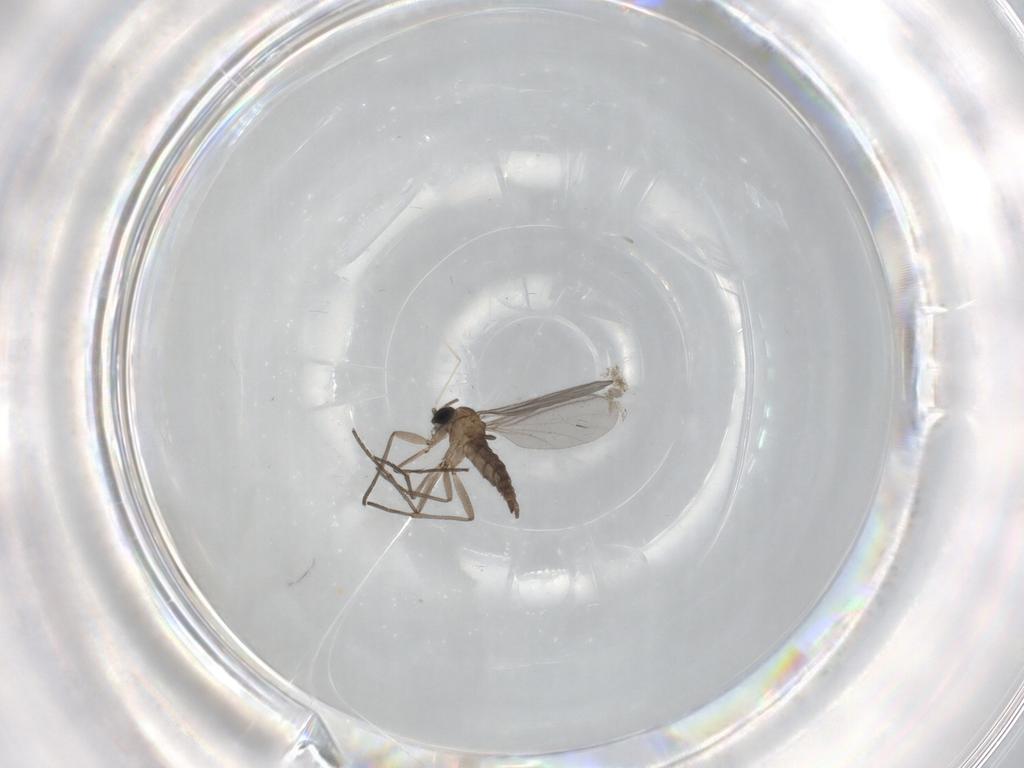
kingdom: Animalia
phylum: Arthropoda
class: Insecta
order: Diptera
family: Sciaridae
